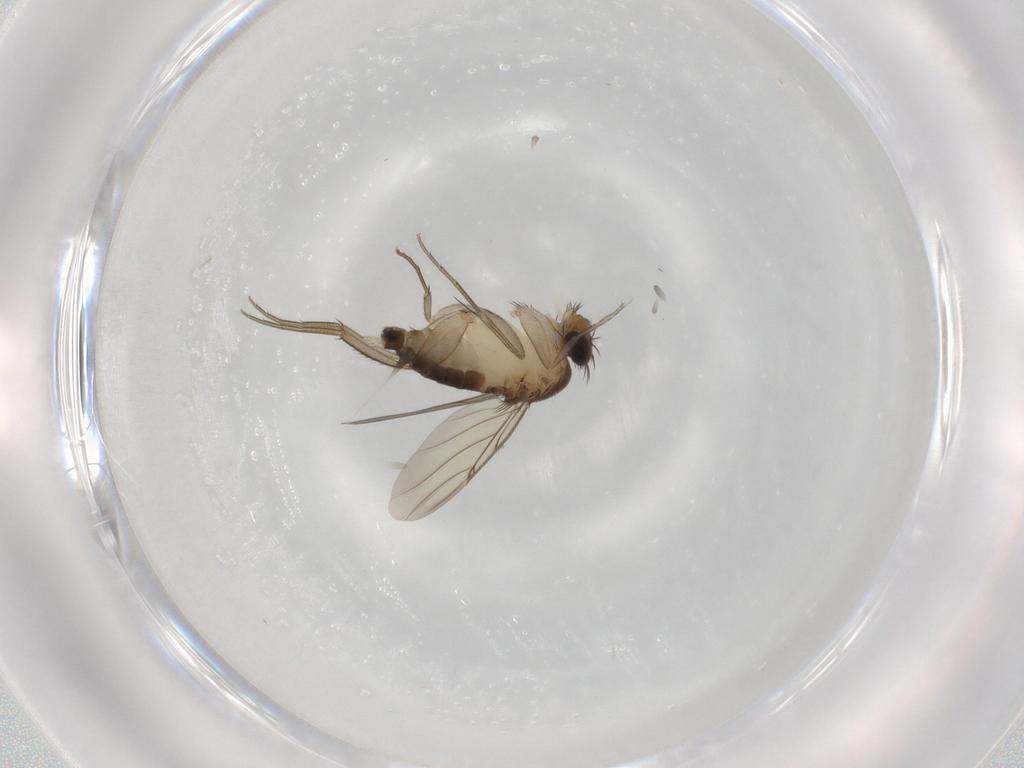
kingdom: Animalia
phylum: Arthropoda
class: Insecta
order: Diptera
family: Phoridae
